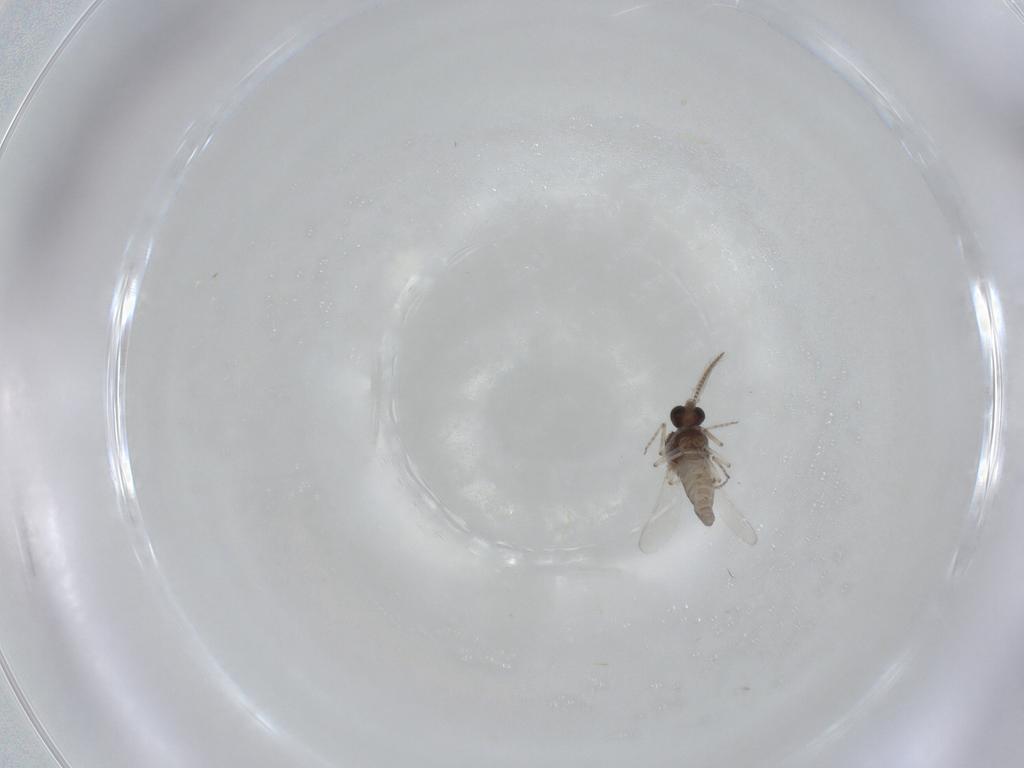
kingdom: Animalia
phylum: Arthropoda
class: Insecta
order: Diptera
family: Ceratopogonidae
